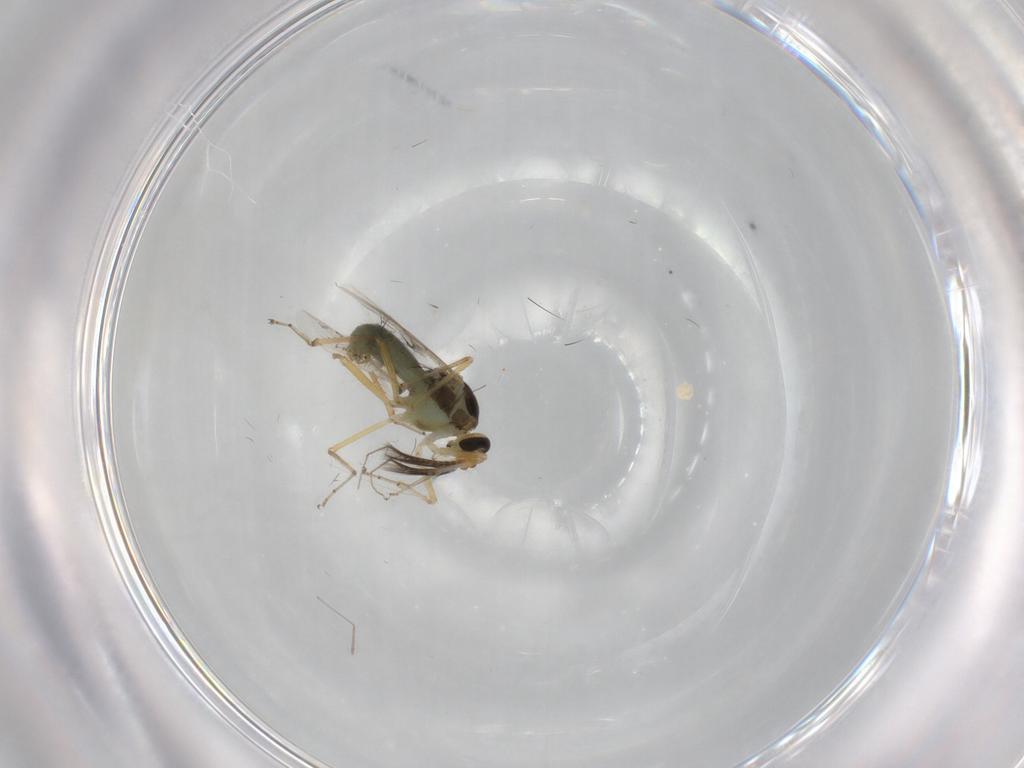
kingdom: Animalia
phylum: Arthropoda
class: Insecta
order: Diptera
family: Ceratopogonidae
